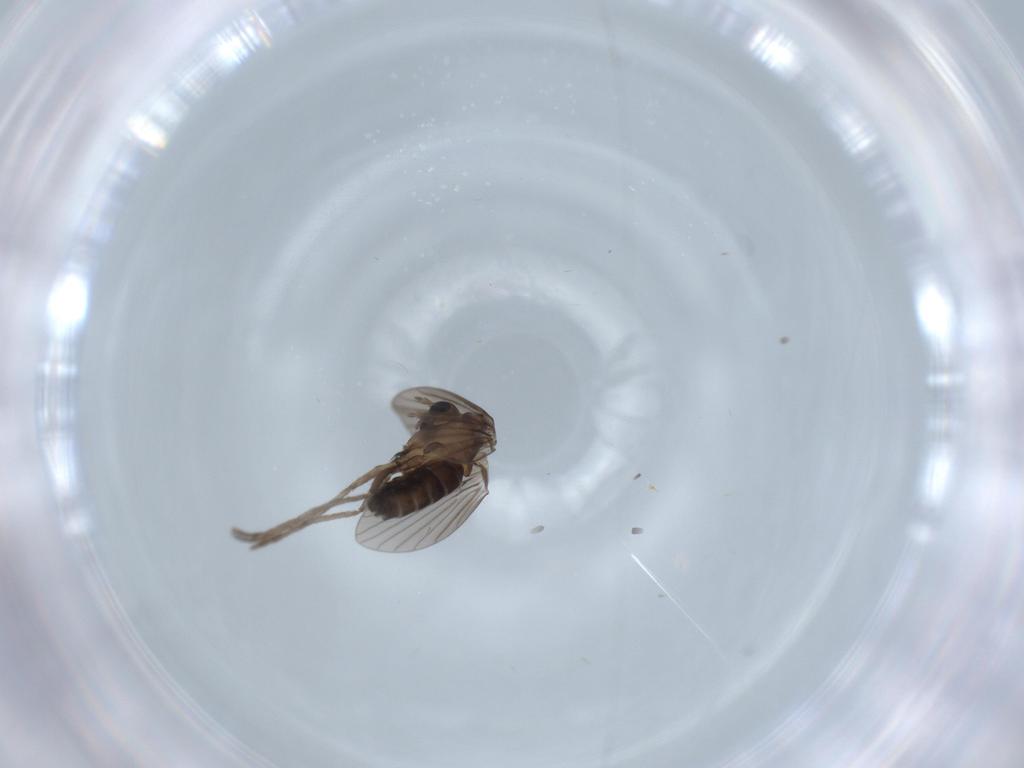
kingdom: Animalia
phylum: Arthropoda
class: Insecta
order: Diptera
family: Psychodidae
